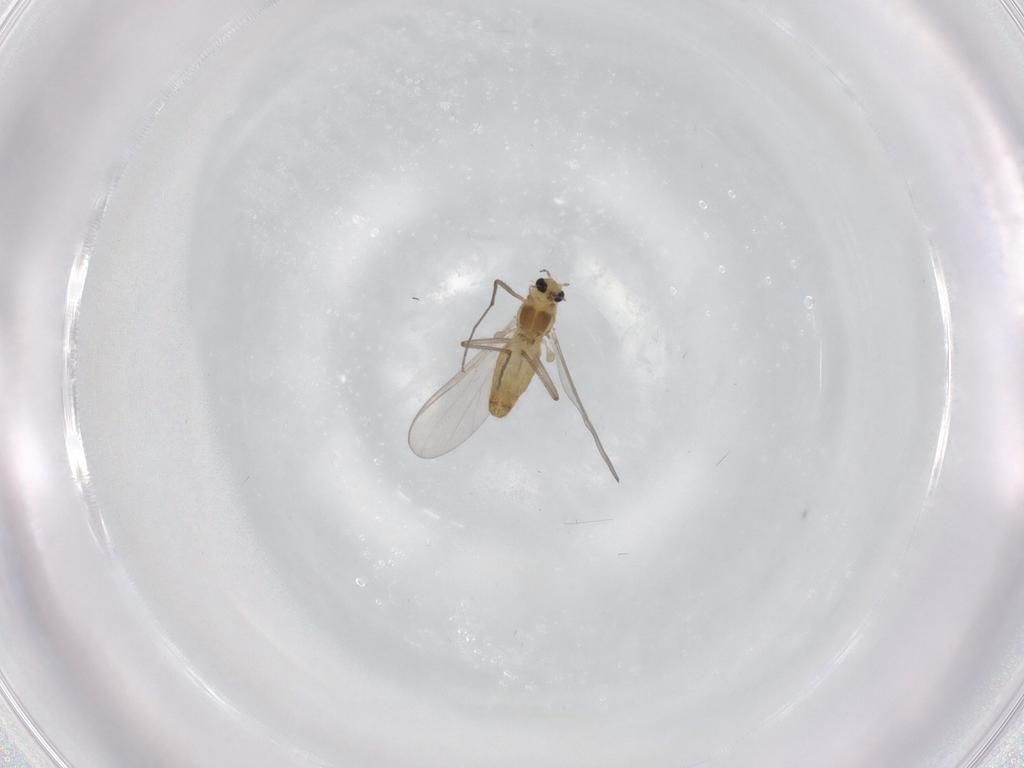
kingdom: Animalia
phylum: Arthropoda
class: Insecta
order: Diptera
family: Chironomidae
